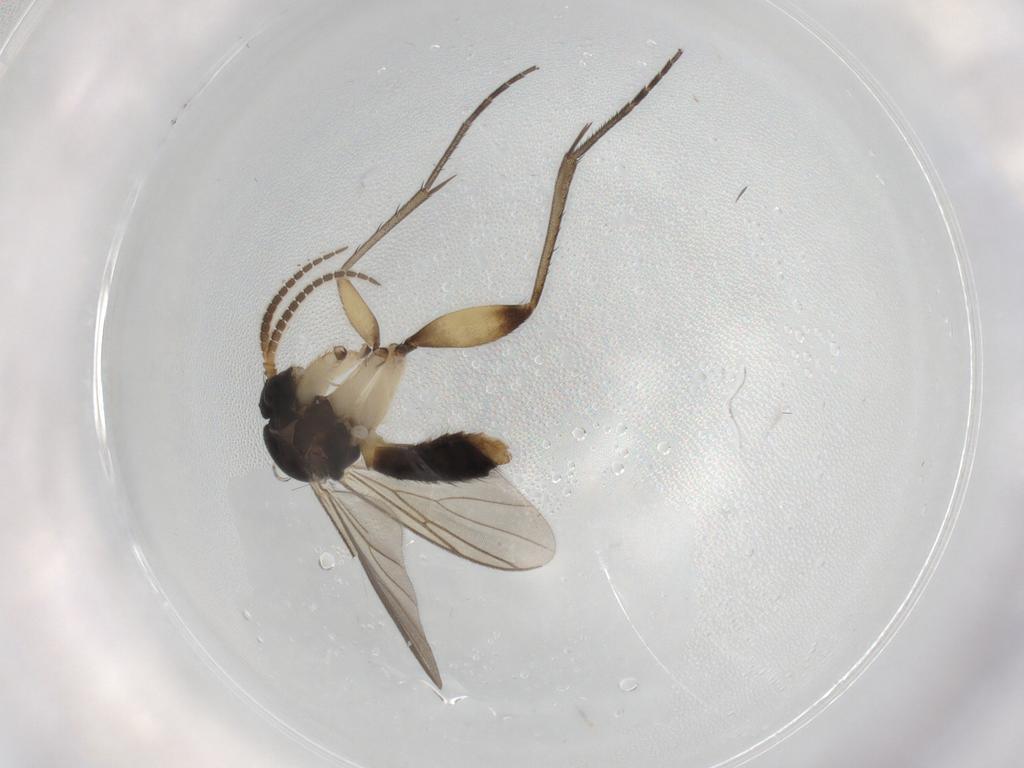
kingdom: Animalia
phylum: Arthropoda
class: Insecta
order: Diptera
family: Mycetophilidae
